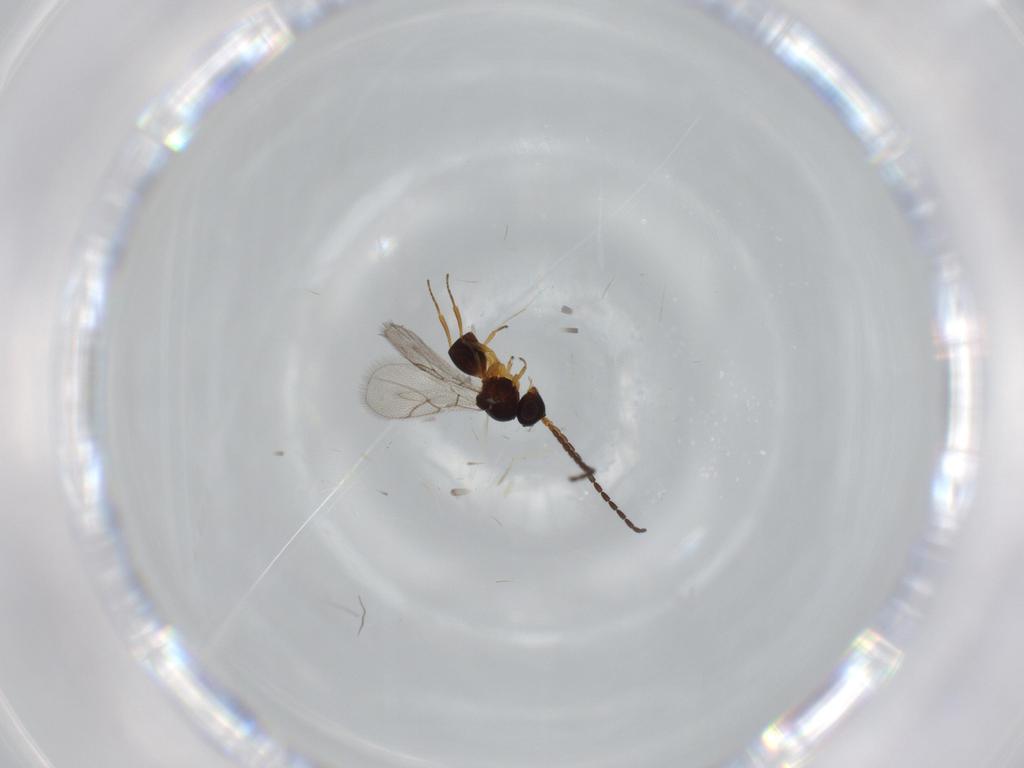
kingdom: Animalia
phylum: Arthropoda
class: Insecta
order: Hymenoptera
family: Figitidae
